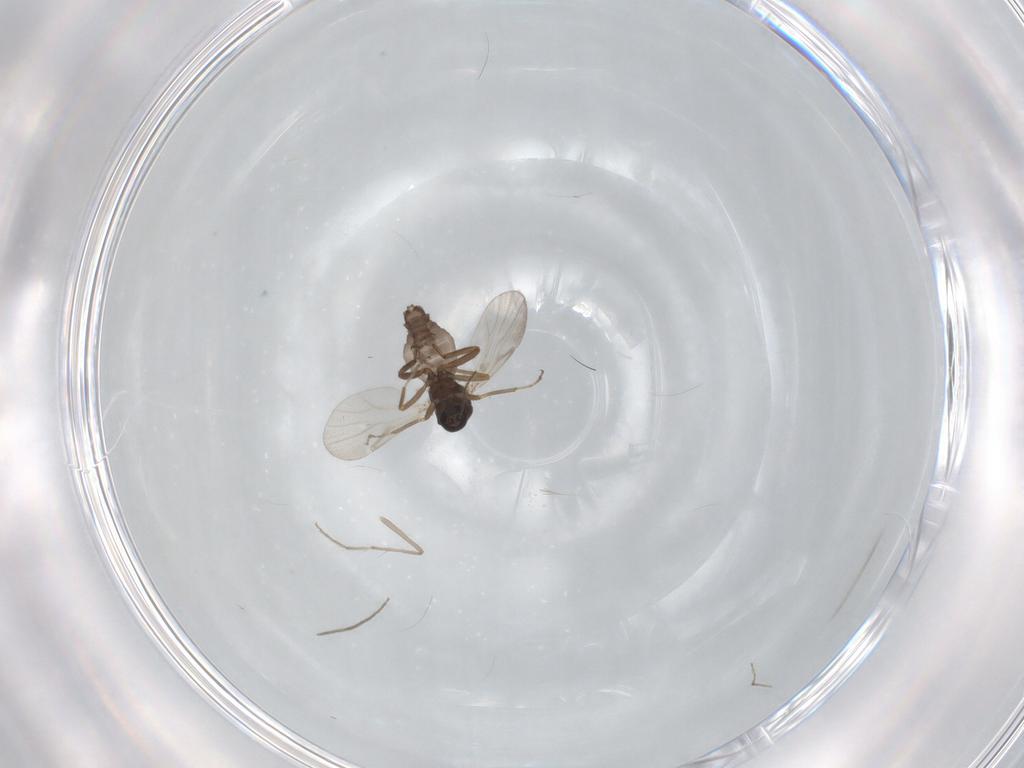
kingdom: Animalia
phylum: Arthropoda
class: Insecta
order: Diptera
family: Chironomidae
